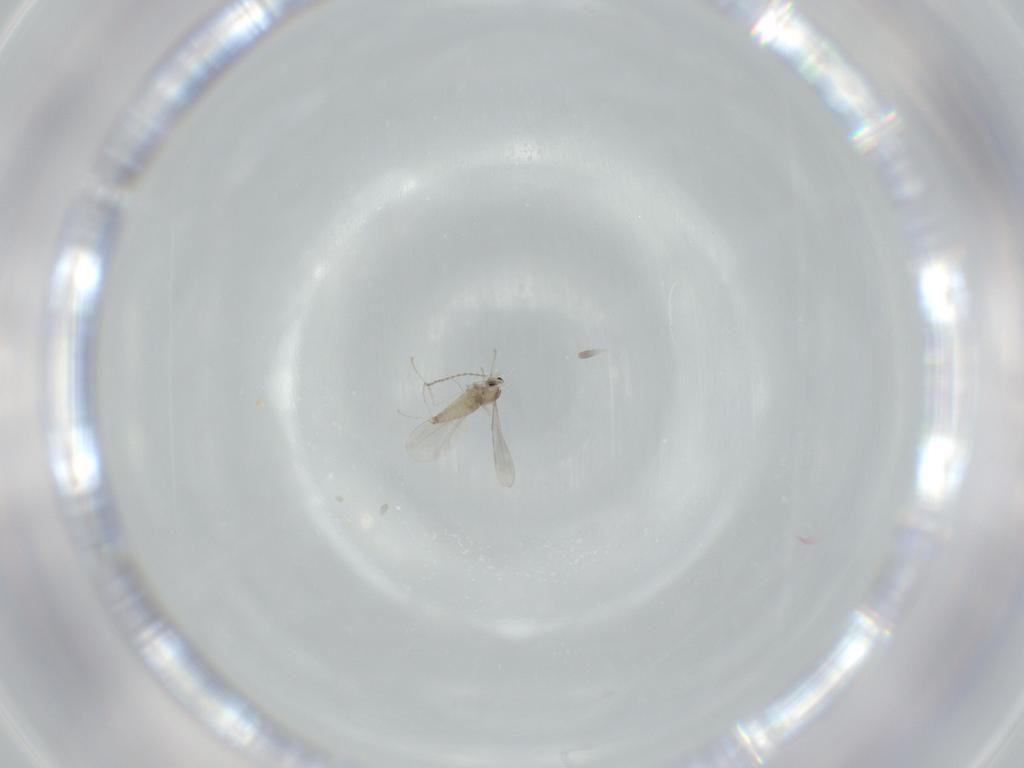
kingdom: Animalia
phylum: Arthropoda
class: Insecta
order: Diptera
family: Cecidomyiidae
